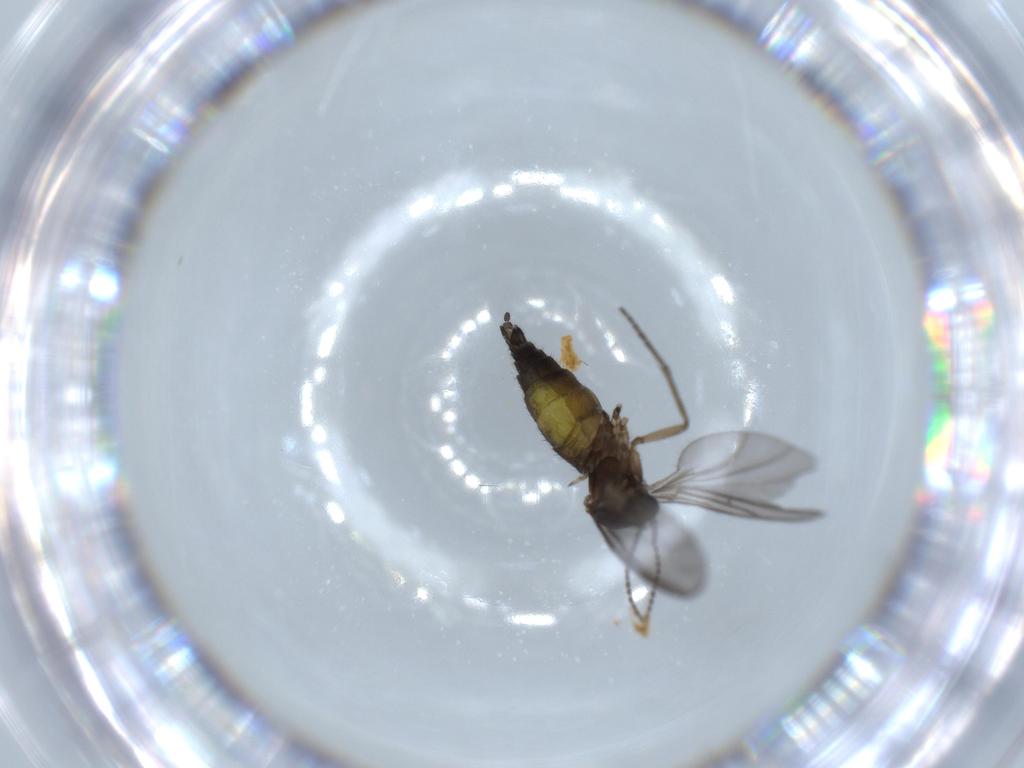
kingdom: Animalia
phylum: Arthropoda
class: Insecta
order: Diptera
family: Sciaridae
